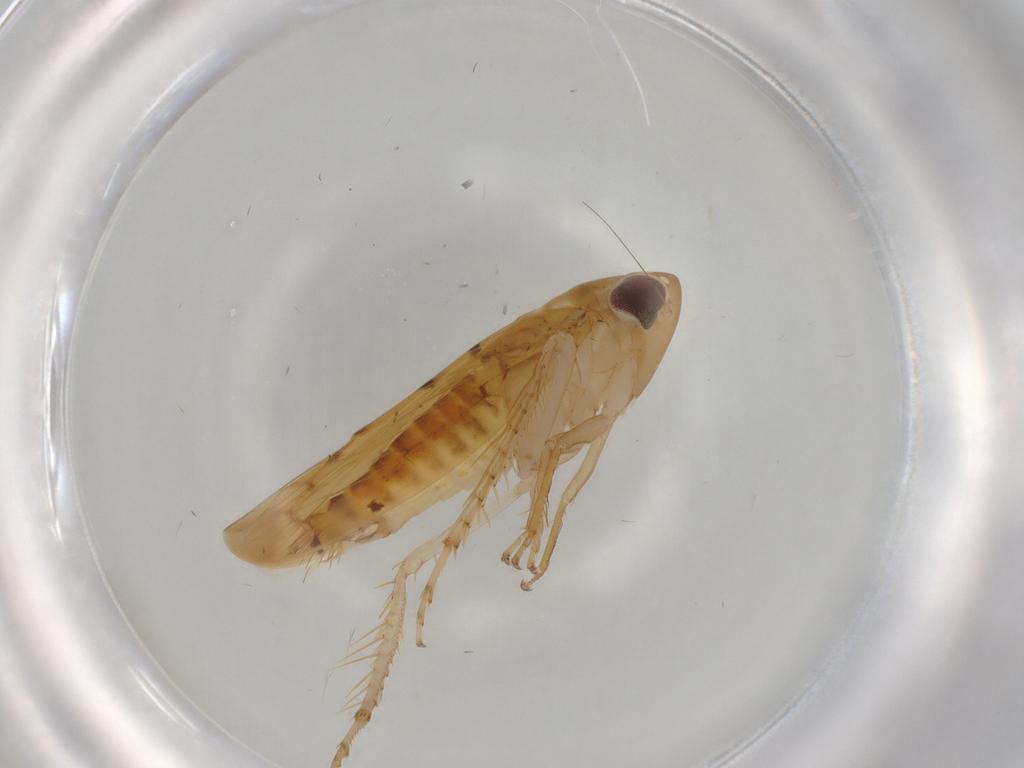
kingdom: Animalia
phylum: Arthropoda
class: Insecta
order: Hemiptera
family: Cicadellidae
